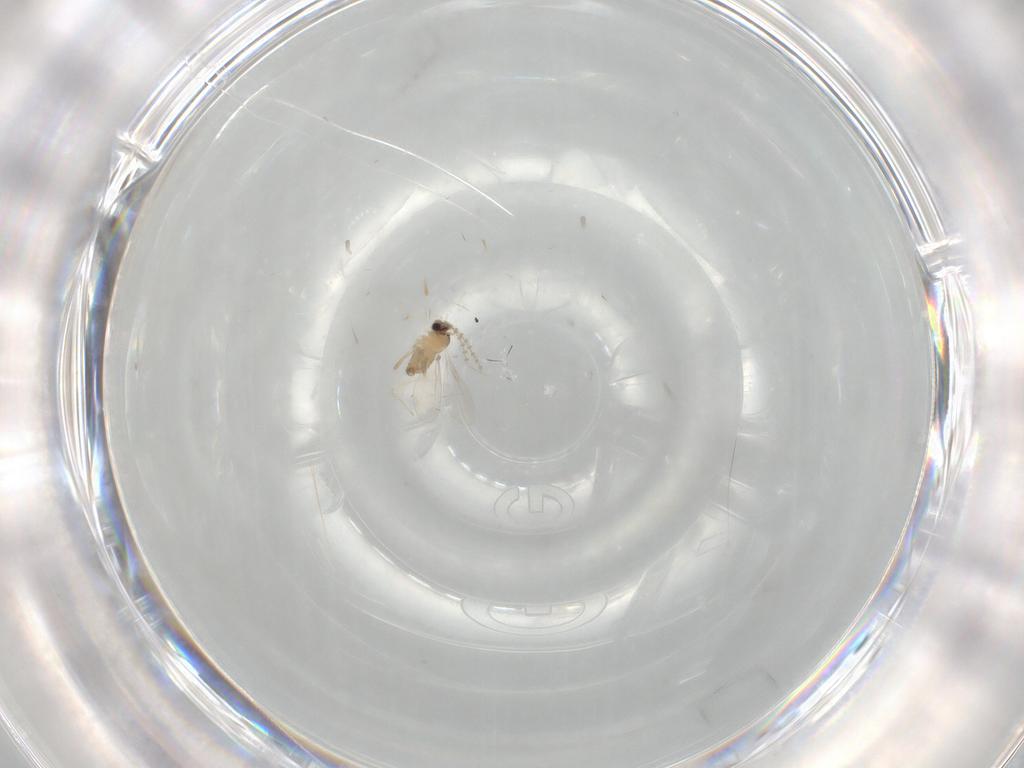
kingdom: Animalia
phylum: Arthropoda
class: Insecta
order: Diptera
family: Cecidomyiidae
